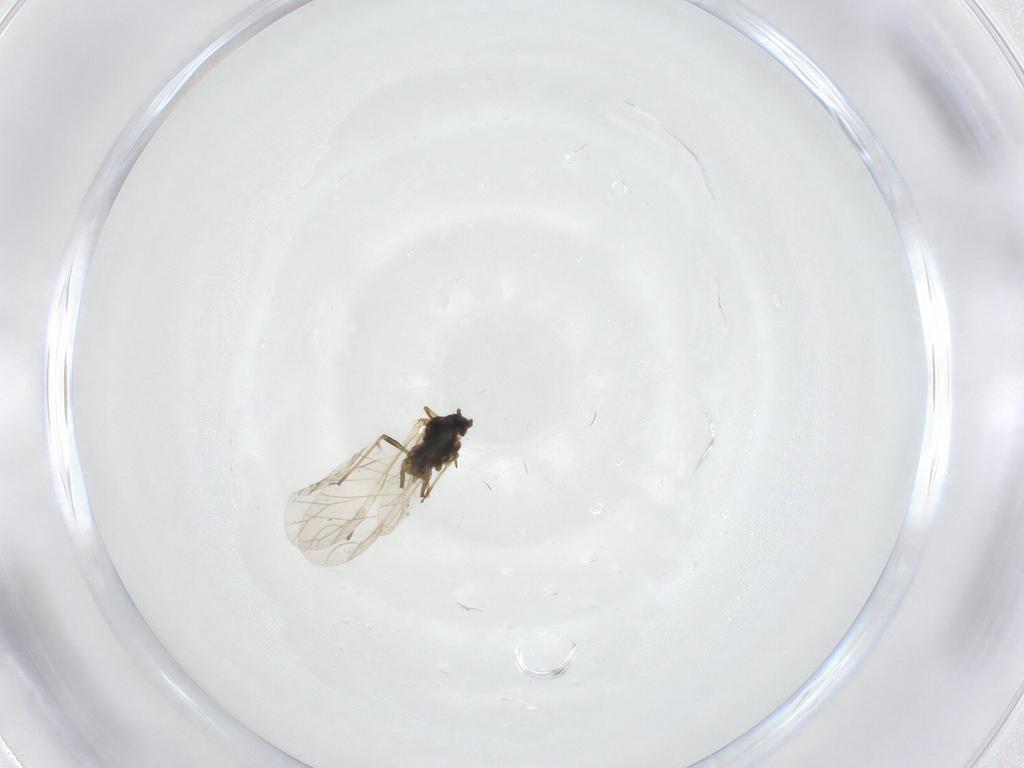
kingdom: Animalia
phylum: Arthropoda
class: Insecta
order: Hemiptera
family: Aphididae
